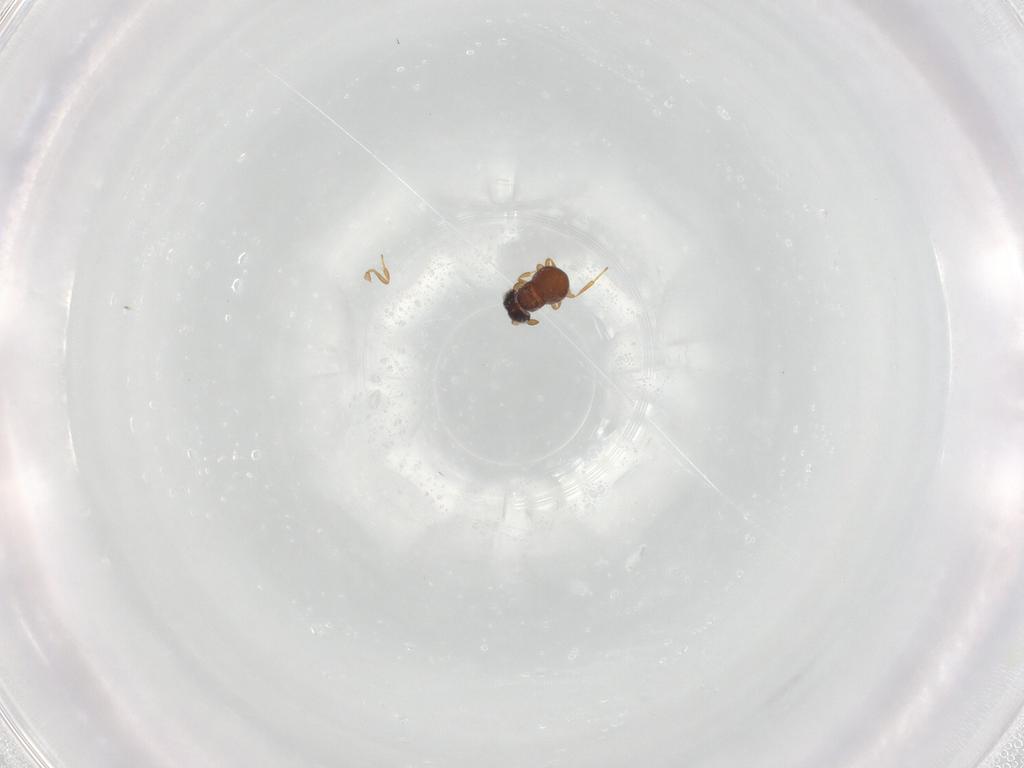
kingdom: Animalia
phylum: Arthropoda
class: Insecta
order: Hymenoptera
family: Scelionidae
